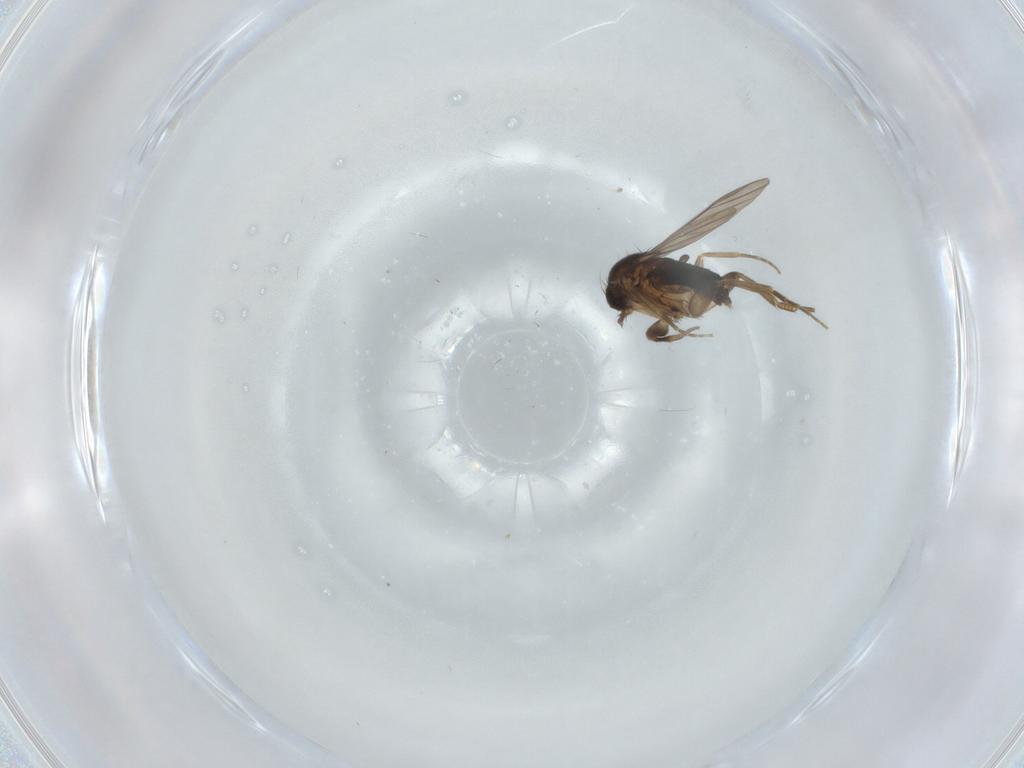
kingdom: Animalia
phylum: Arthropoda
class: Insecta
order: Diptera
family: Phoridae
